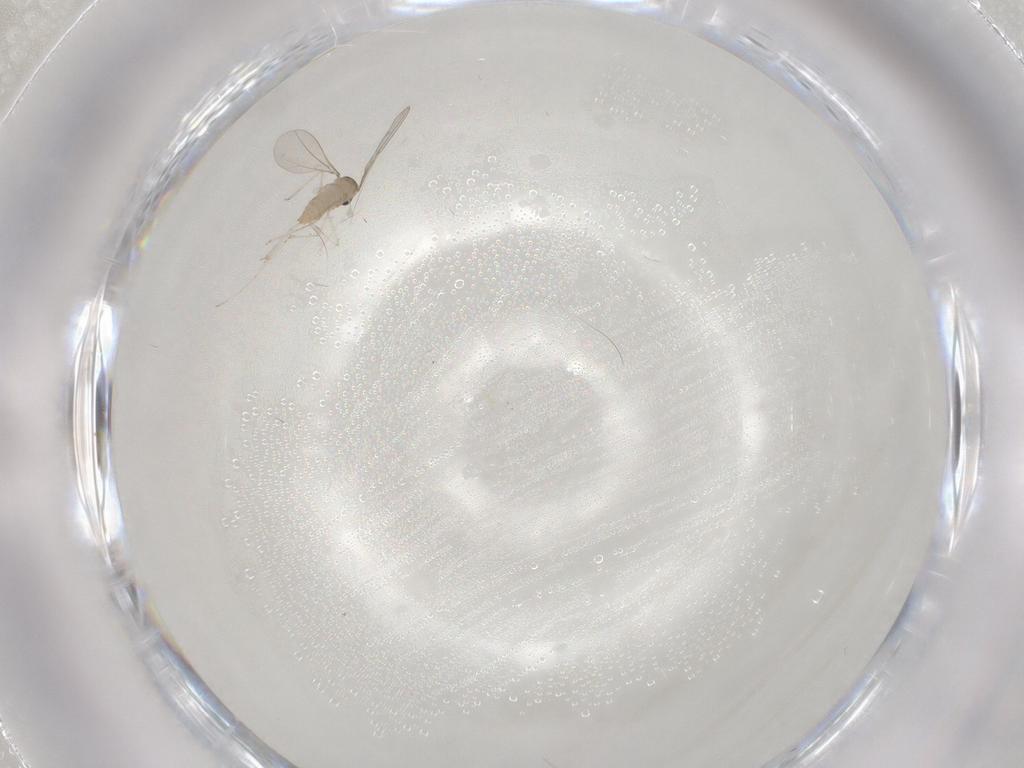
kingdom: Animalia
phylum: Arthropoda
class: Insecta
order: Diptera
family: Cecidomyiidae
